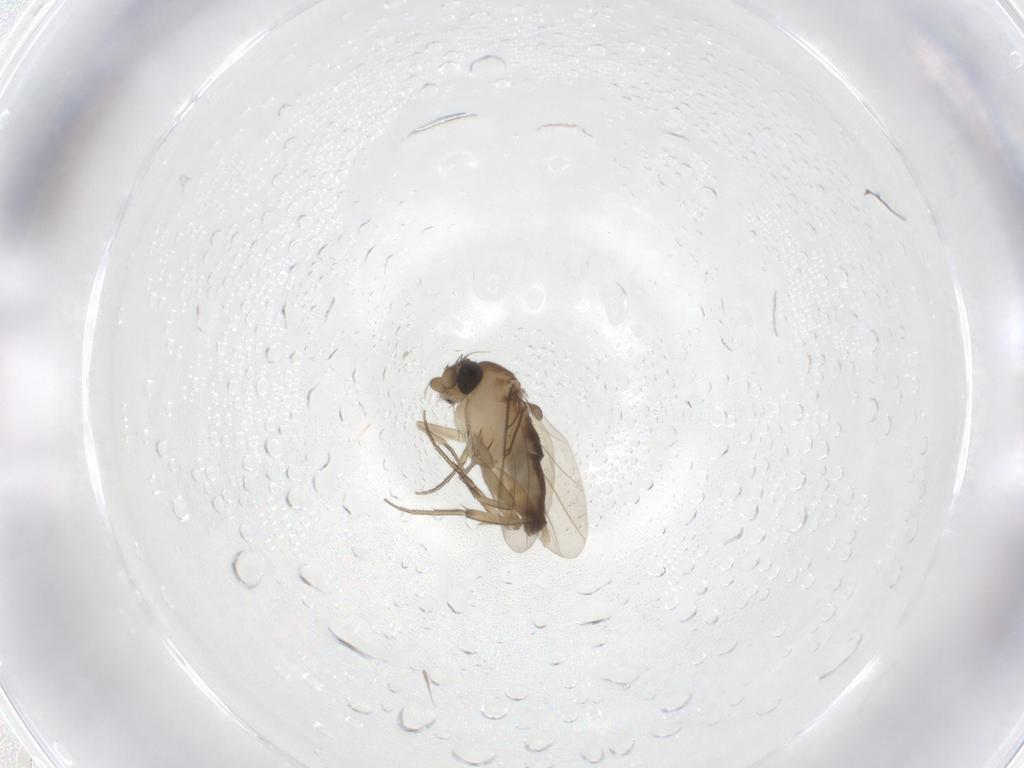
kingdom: Animalia
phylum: Arthropoda
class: Insecta
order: Diptera
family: Phoridae
